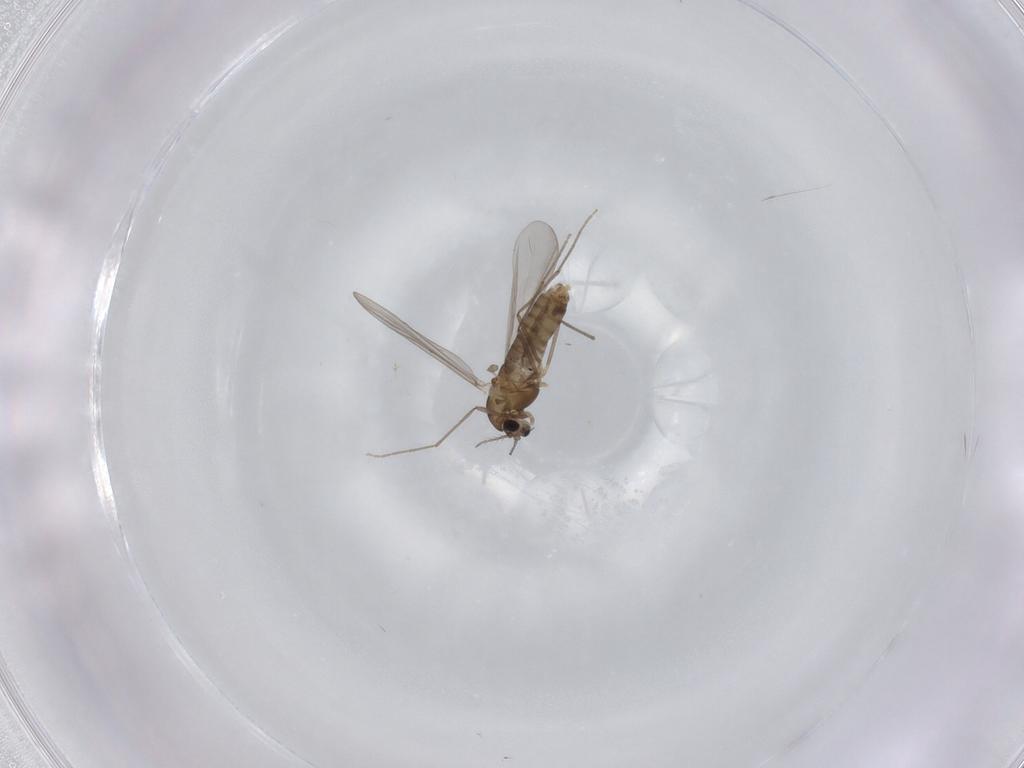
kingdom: Animalia
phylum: Arthropoda
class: Insecta
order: Diptera
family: Chironomidae
